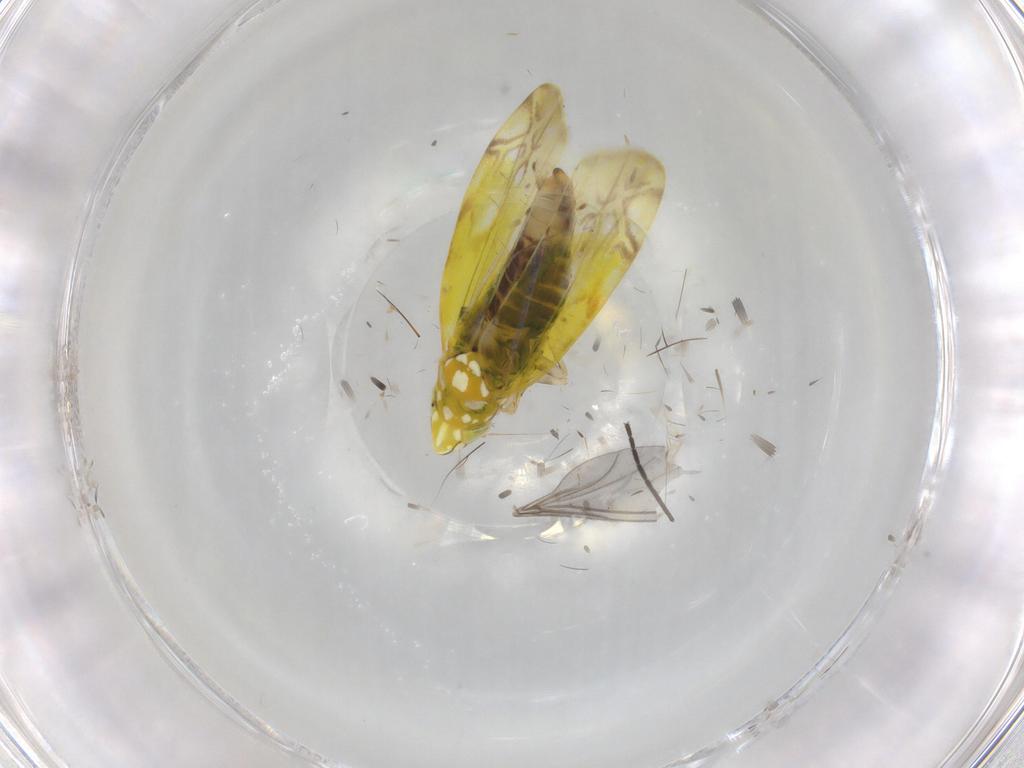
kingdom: Animalia
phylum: Arthropoda
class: Insecta
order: Hemiptera
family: Cicadellidae
